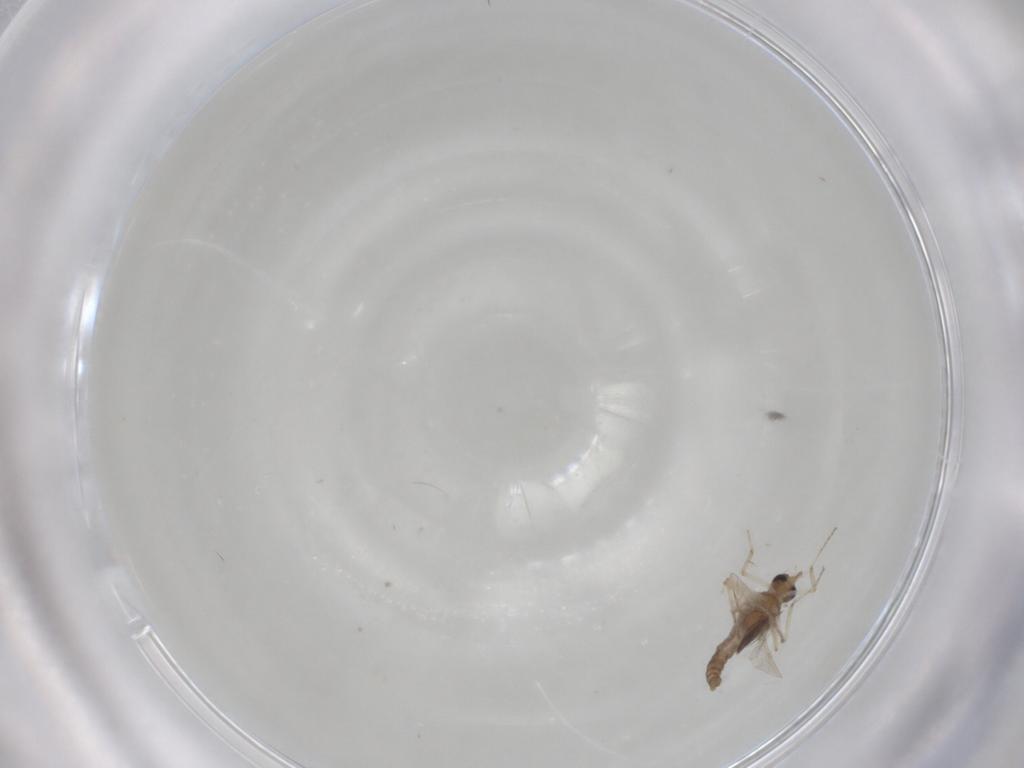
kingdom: Animalia
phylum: Arthropoda
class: Insecta
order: Diptera
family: Ceratopogonidae
